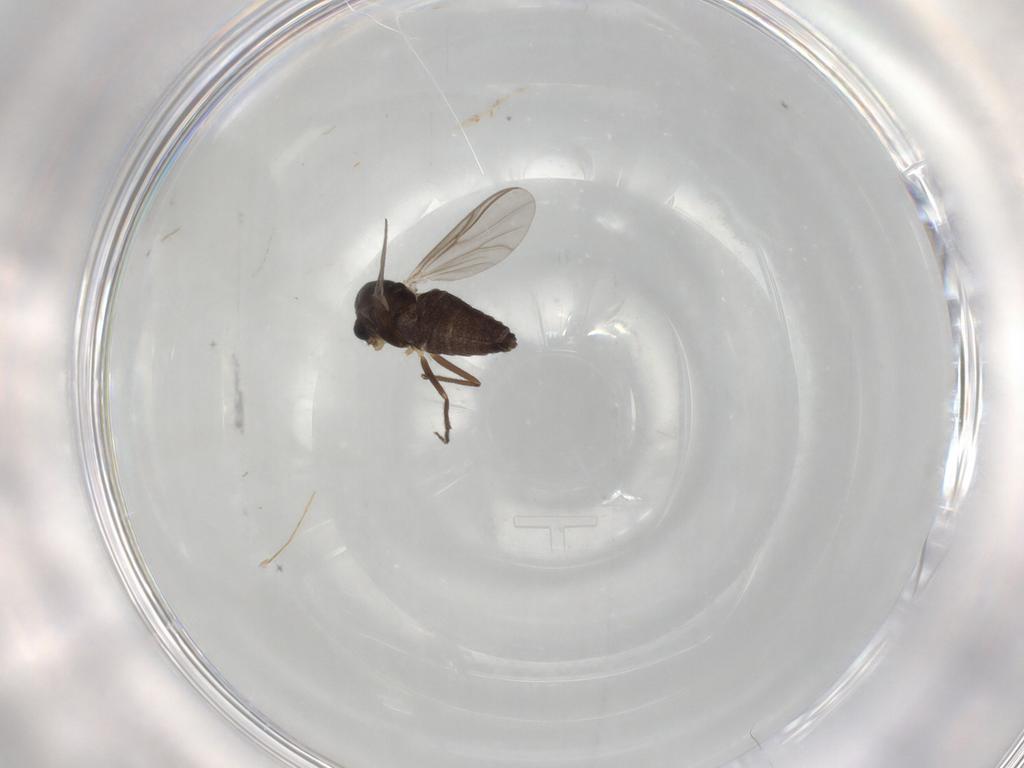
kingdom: Animalia
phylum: Arthropoda
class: Insecta
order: Diptera
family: Chironomidae
